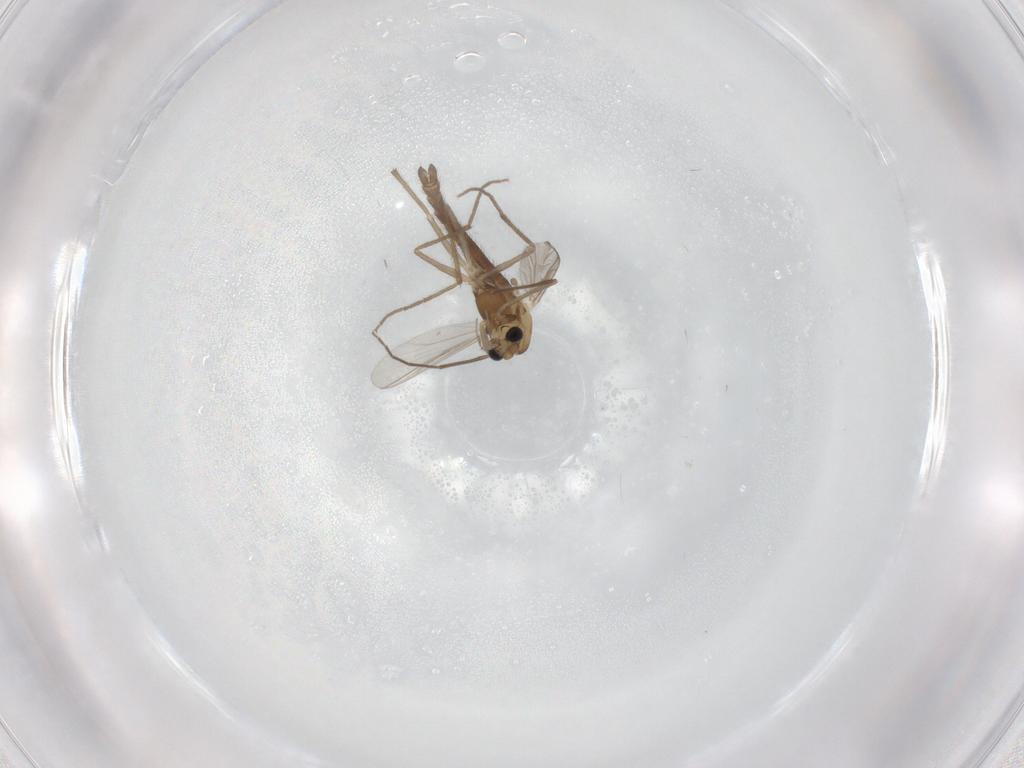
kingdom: Animalia
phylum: Arthropoda
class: Insecta
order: Diptera
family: Chironomidae
